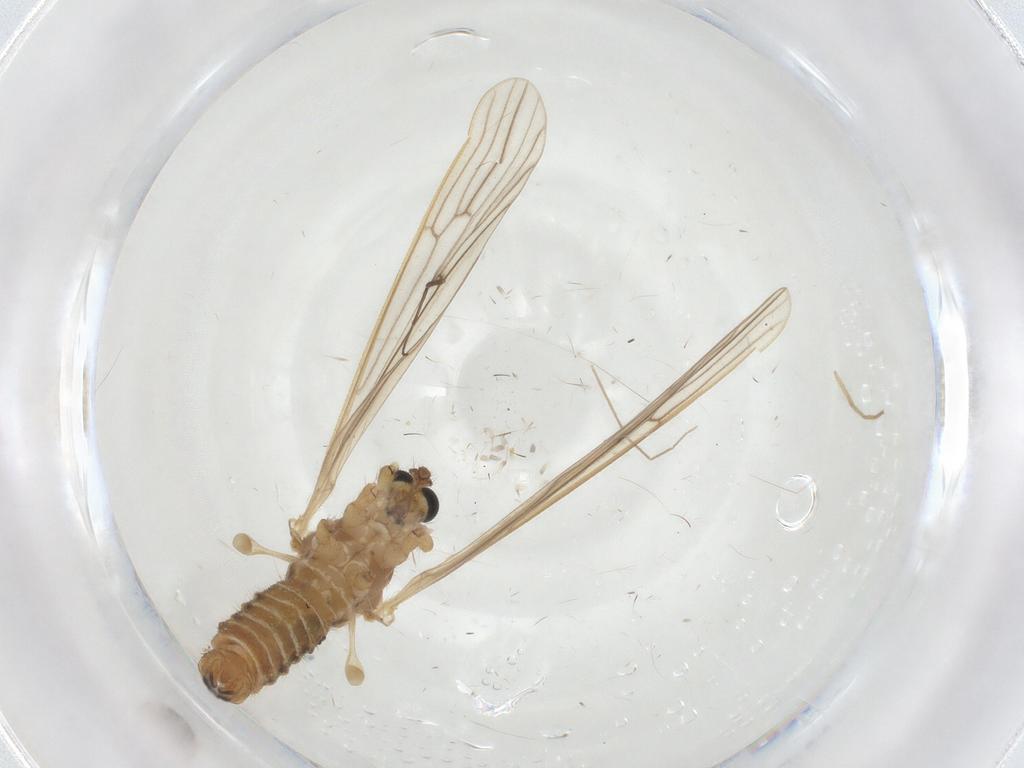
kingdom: Animalia
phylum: Arthropoda
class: Insecta
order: Diptera
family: Limoniidae
